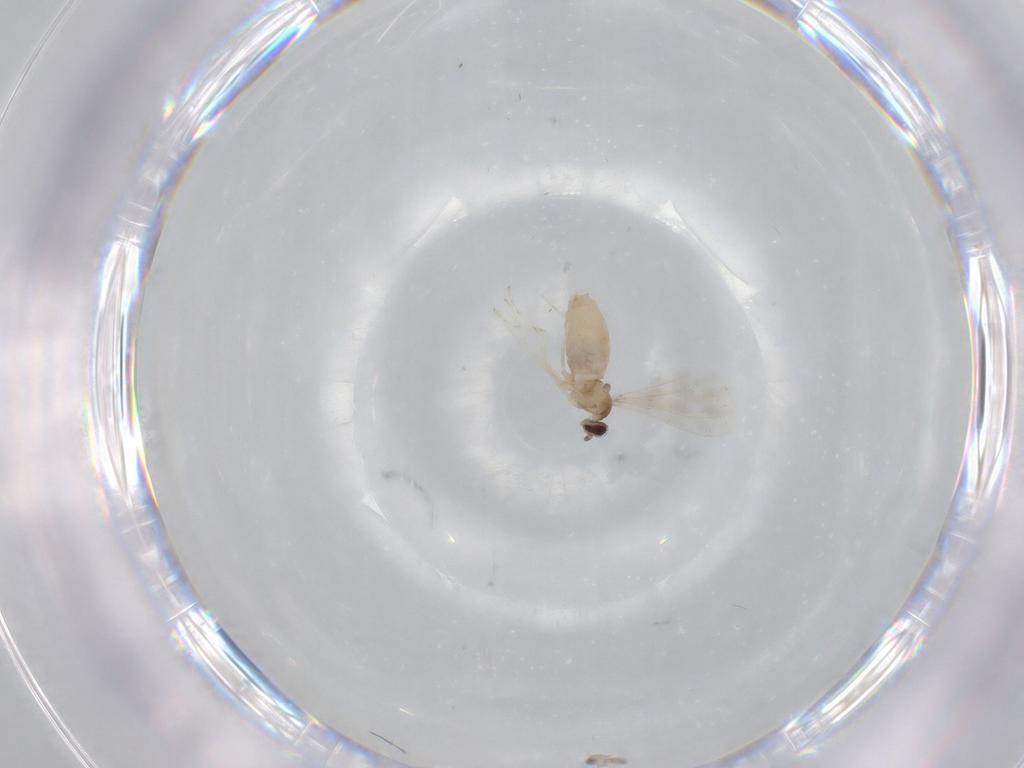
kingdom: Animalia
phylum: Arthropoda
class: Insecta
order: Diptera
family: Cecidomyiidae
